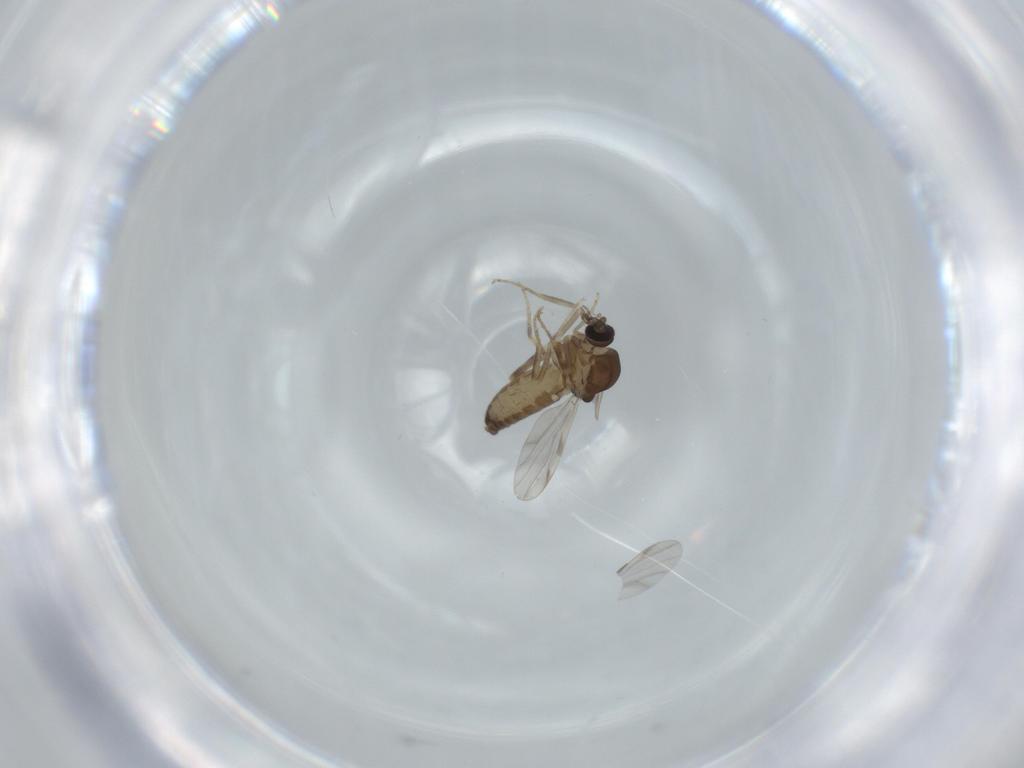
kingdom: Animalia
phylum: Arthropoda
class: Insecta
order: Diptera
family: Ceratopogonidae
